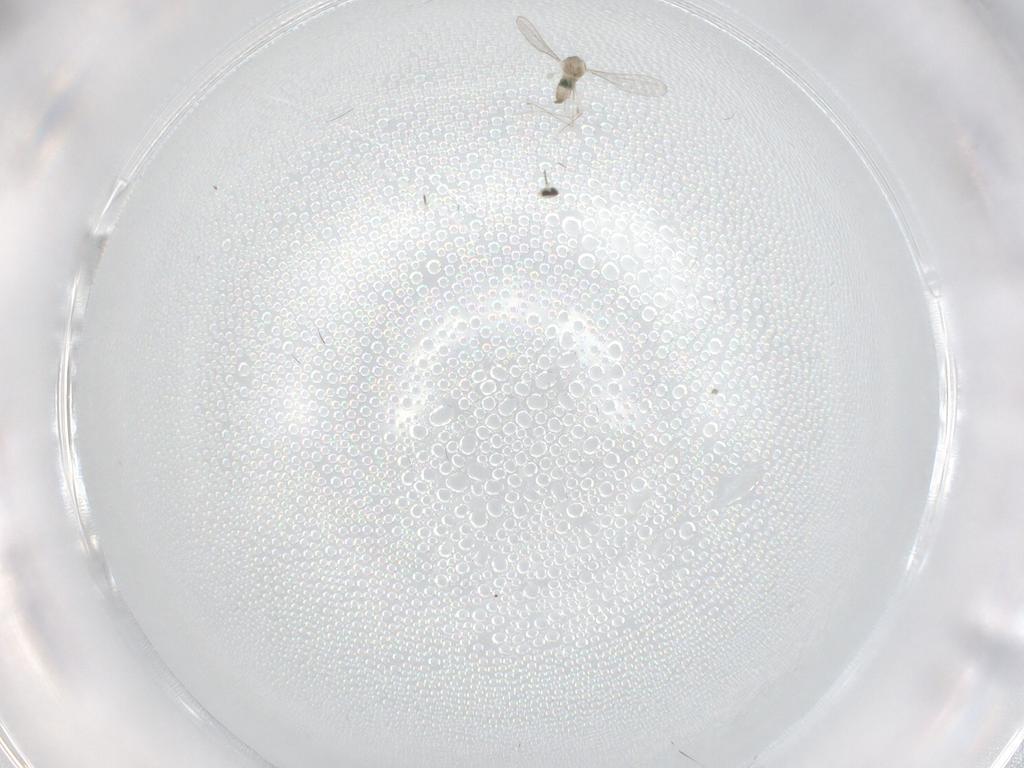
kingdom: Animalia
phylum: Arthropoda
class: Insecta
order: Diptera
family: Cecidomyiidae
